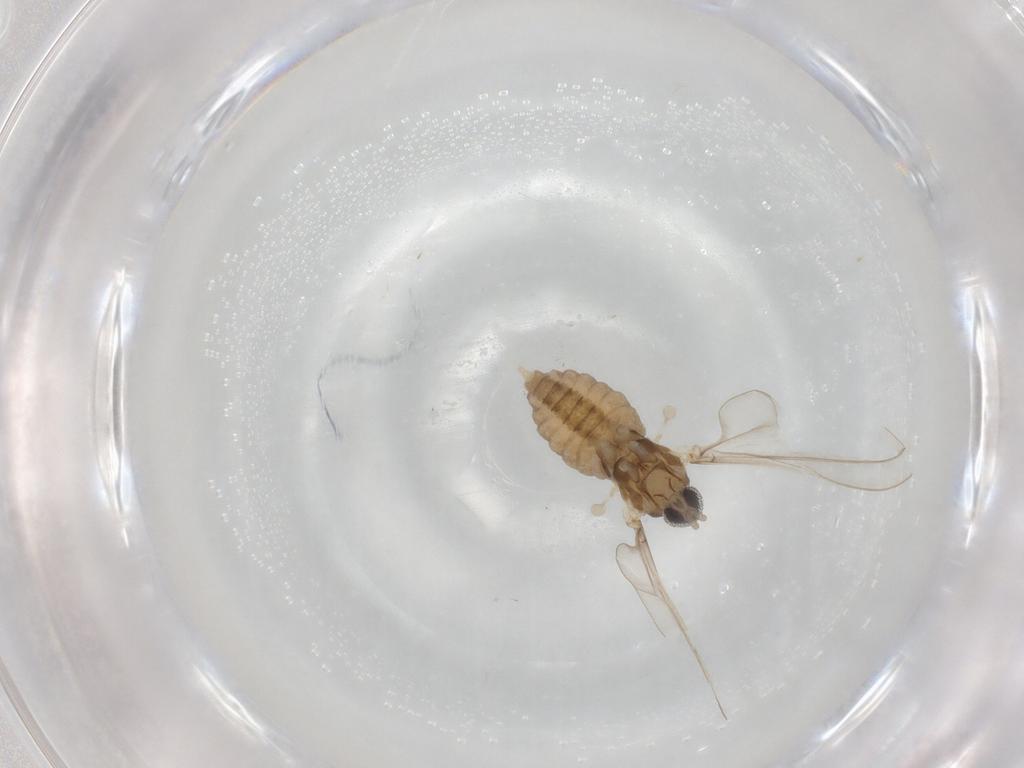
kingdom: Animalia
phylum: Arthropoda
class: Insecta
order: Diptera
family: Cecidomyiidae
